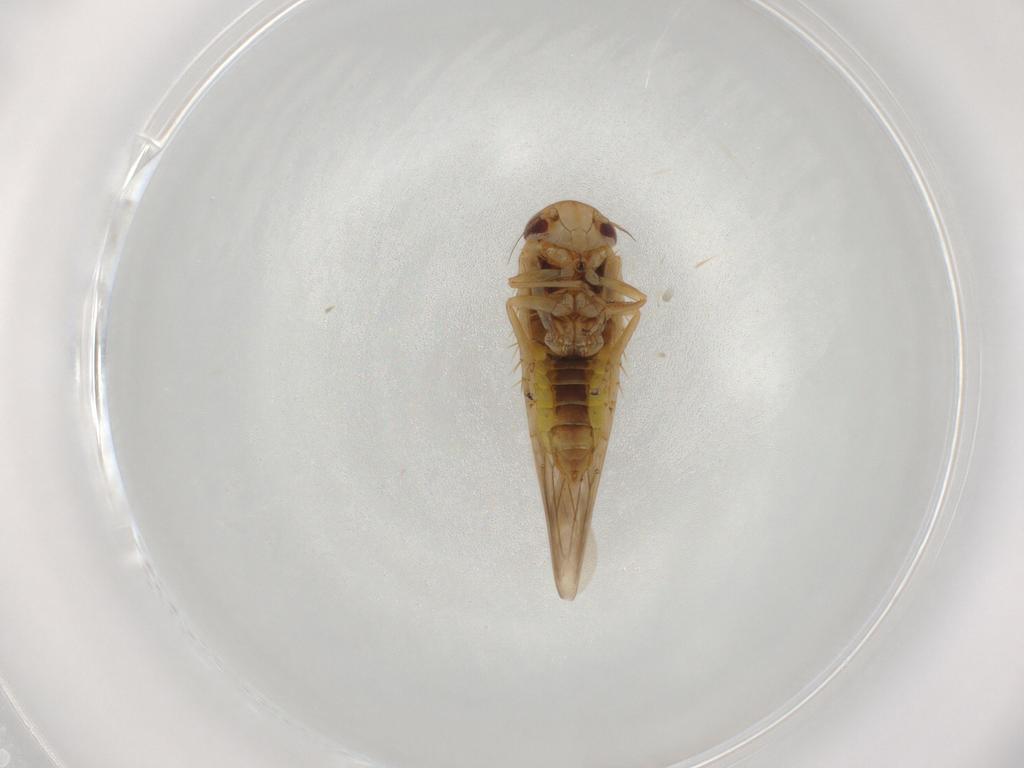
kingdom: Animalia
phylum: Arthropoda
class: Insecta
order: Hemiptera
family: Cicadellidae
